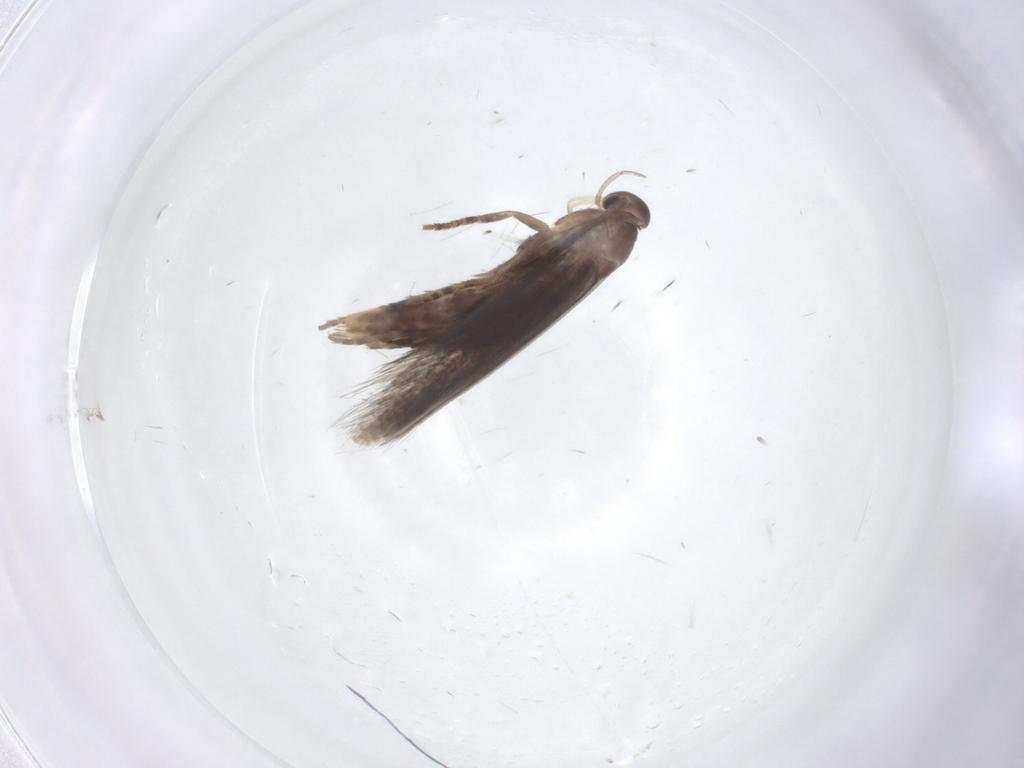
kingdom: Animalia
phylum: Arthropoda
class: Insecta
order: Lepidoptera
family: Elachistidae
